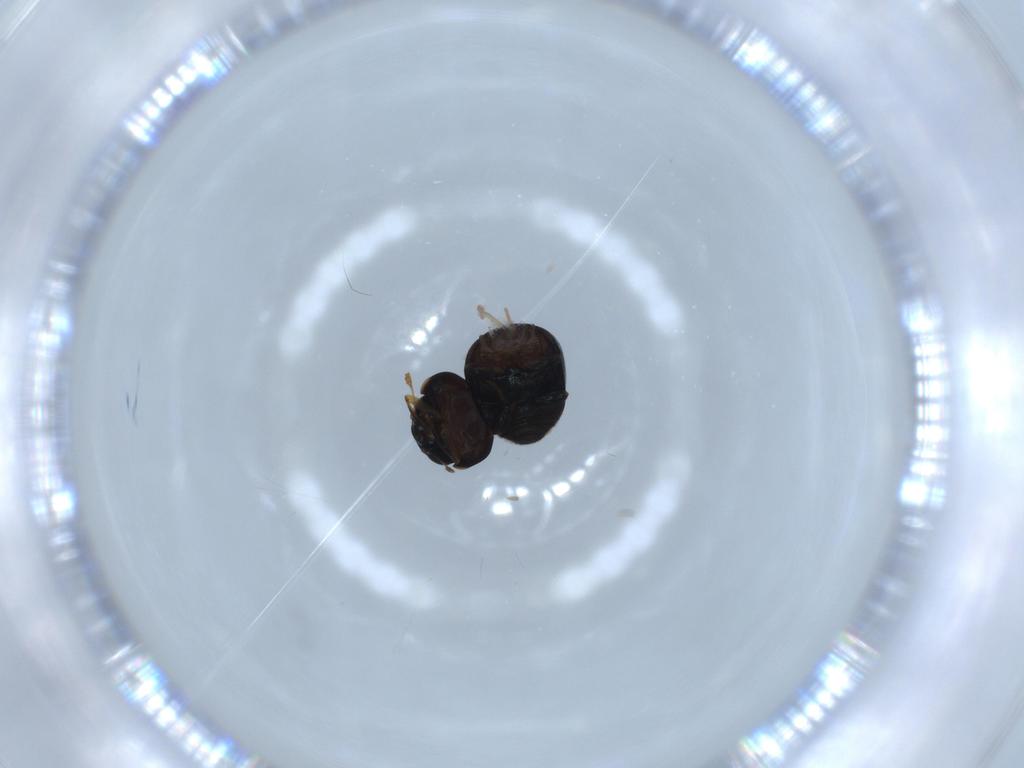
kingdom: Animalia
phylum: Arthropoda
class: Insecta
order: Coleoptera
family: Cybocephalidae
